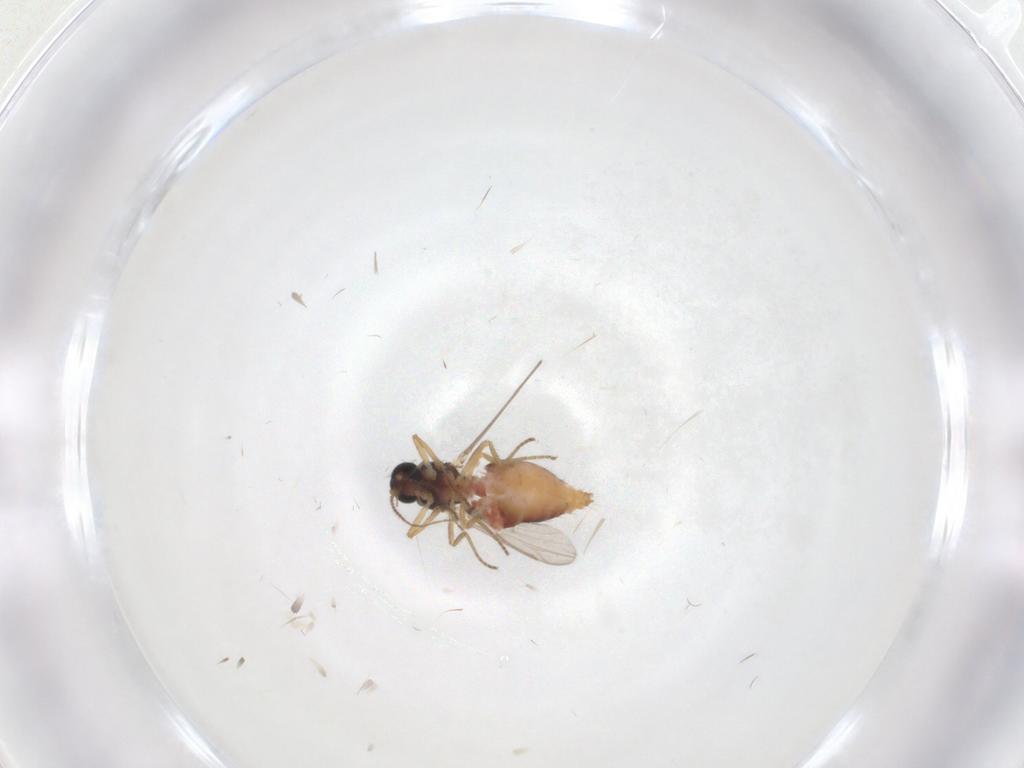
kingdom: Animalia
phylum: Arthropoda
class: Insecta
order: Diptera
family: Ceratopogonidae
